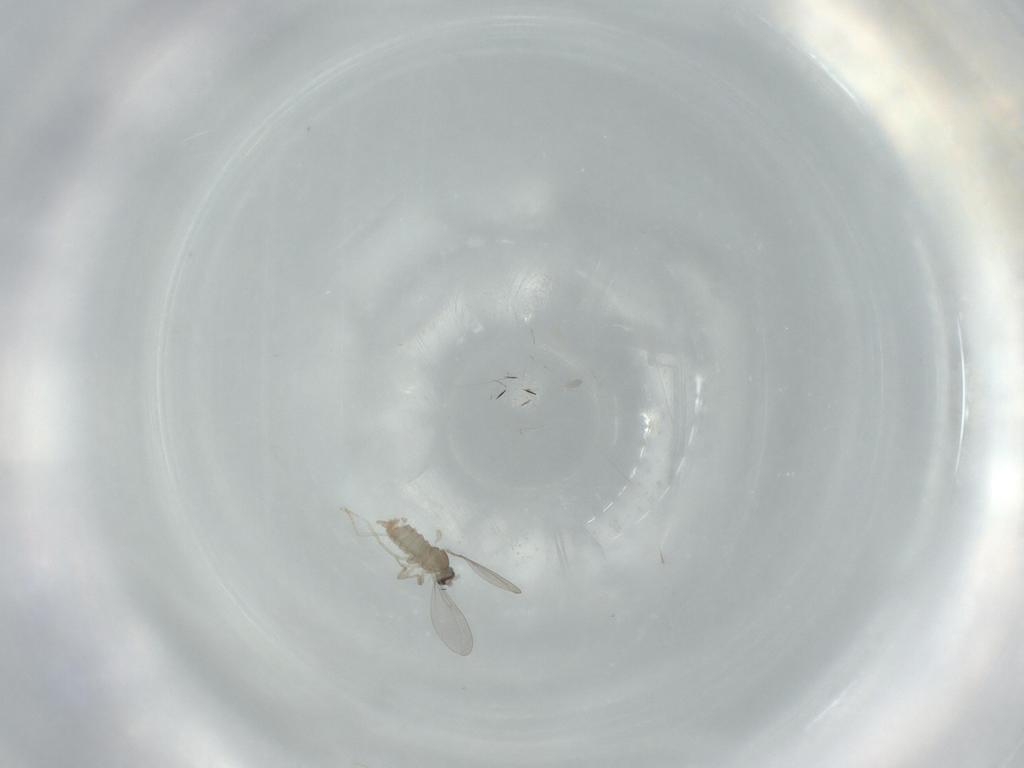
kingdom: Animalia
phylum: Arthropoda
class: Insecta
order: Diptera
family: Cecidomyiidae
